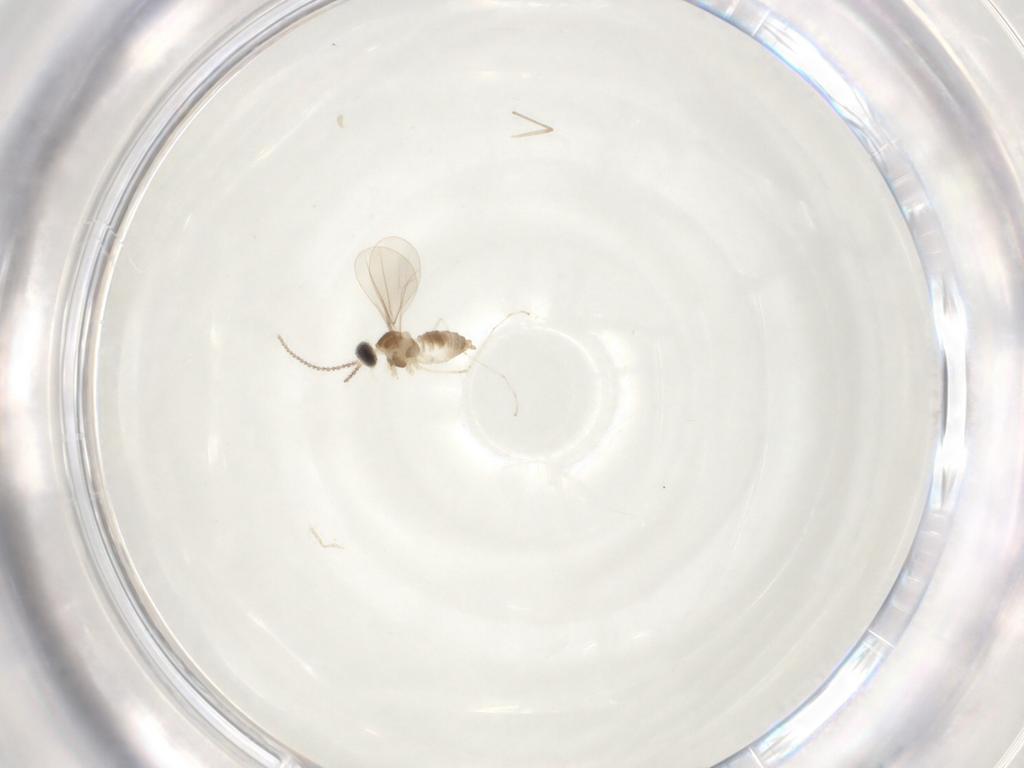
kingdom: Animalia
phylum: Arthropoda
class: Insecta
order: Diptera
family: Cecidomyiidae
